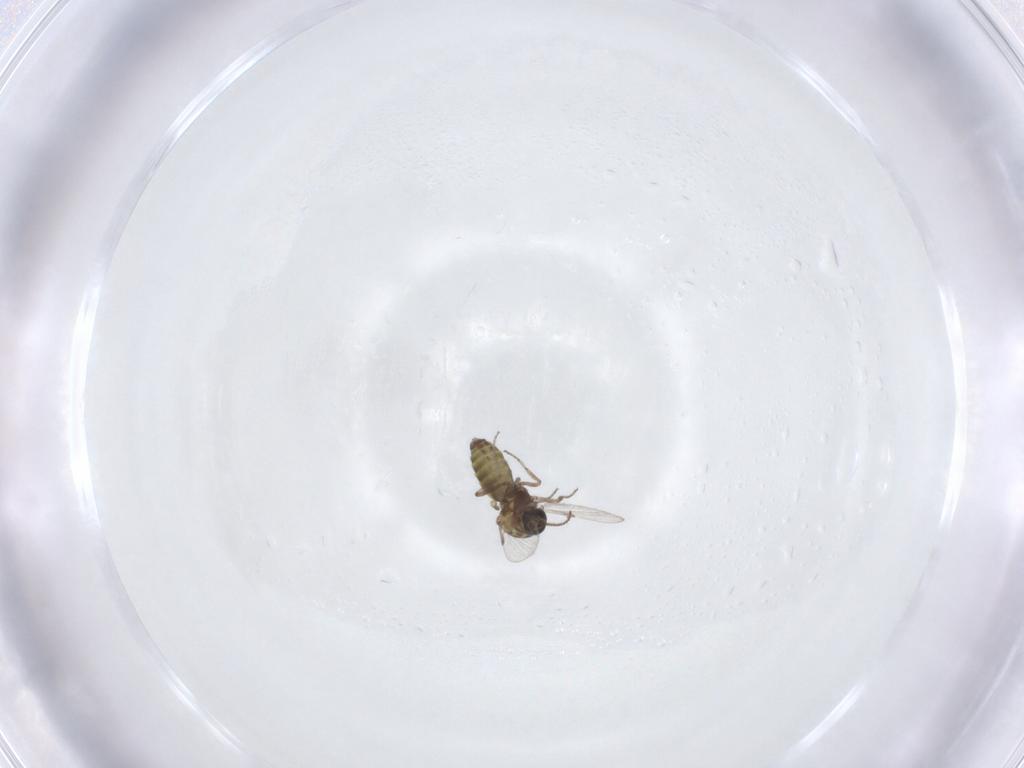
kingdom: Animalia
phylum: Arthropoda
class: Insecta
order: Diptera
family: Ceratopogonidae
